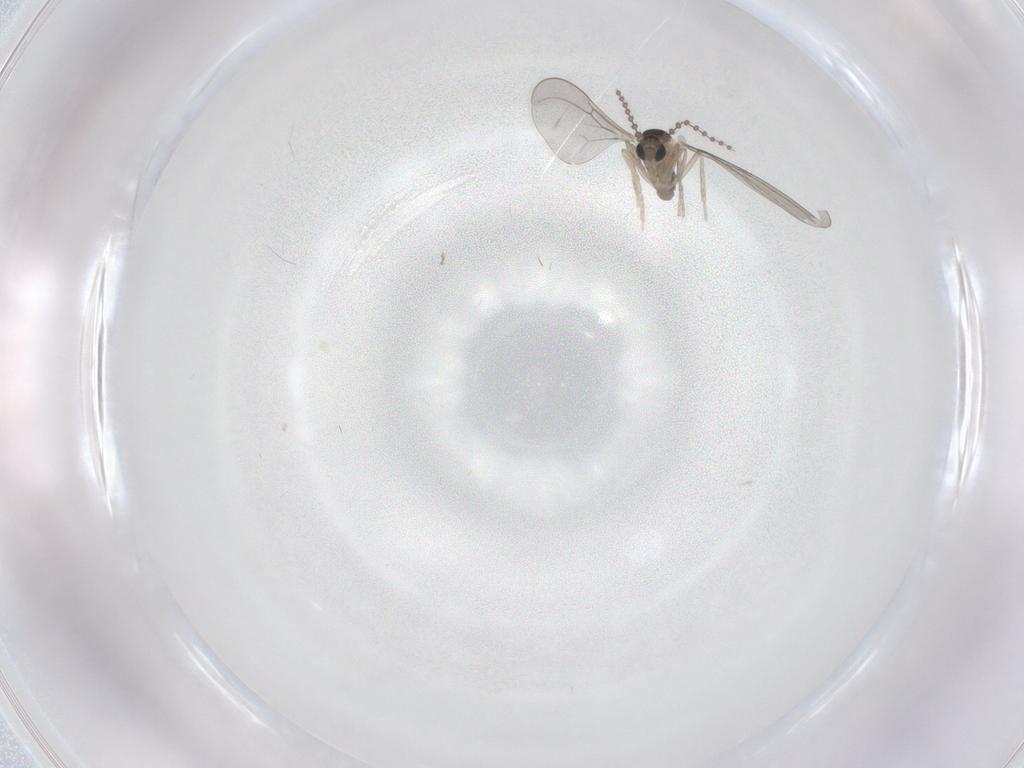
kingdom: Animalia
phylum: Arthropoda
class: Insecta
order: Diptera
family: Cecidomyiidae
